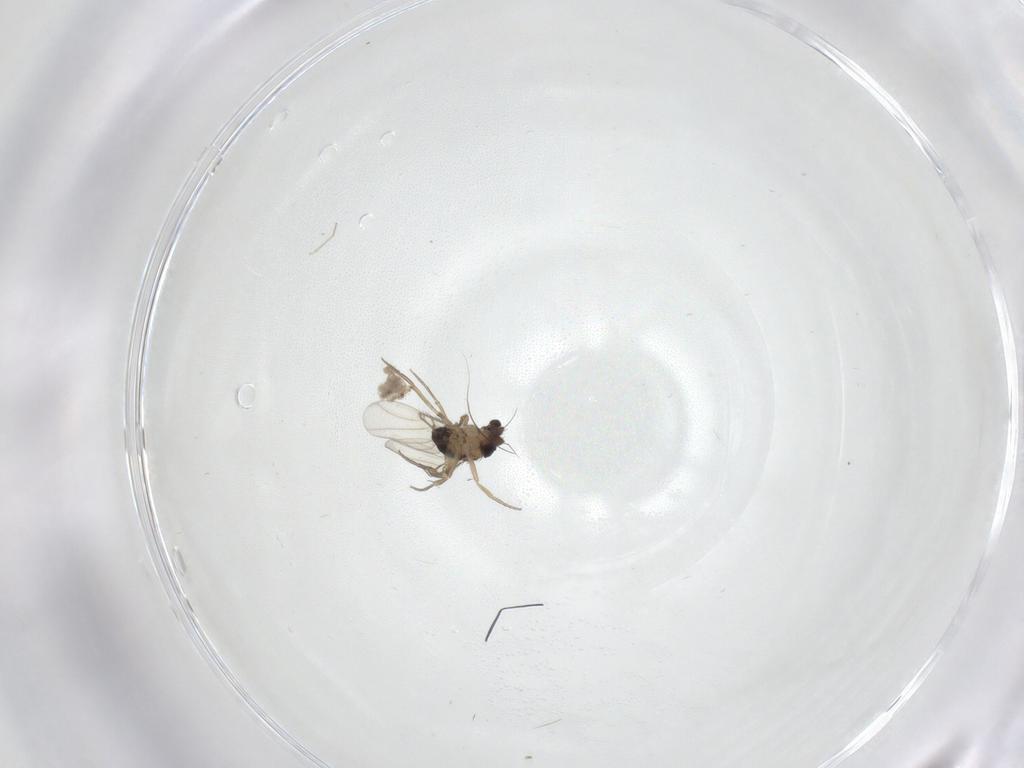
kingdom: Animalia
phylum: Arthropoda
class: Insecta
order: Diptera
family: Phoridae
